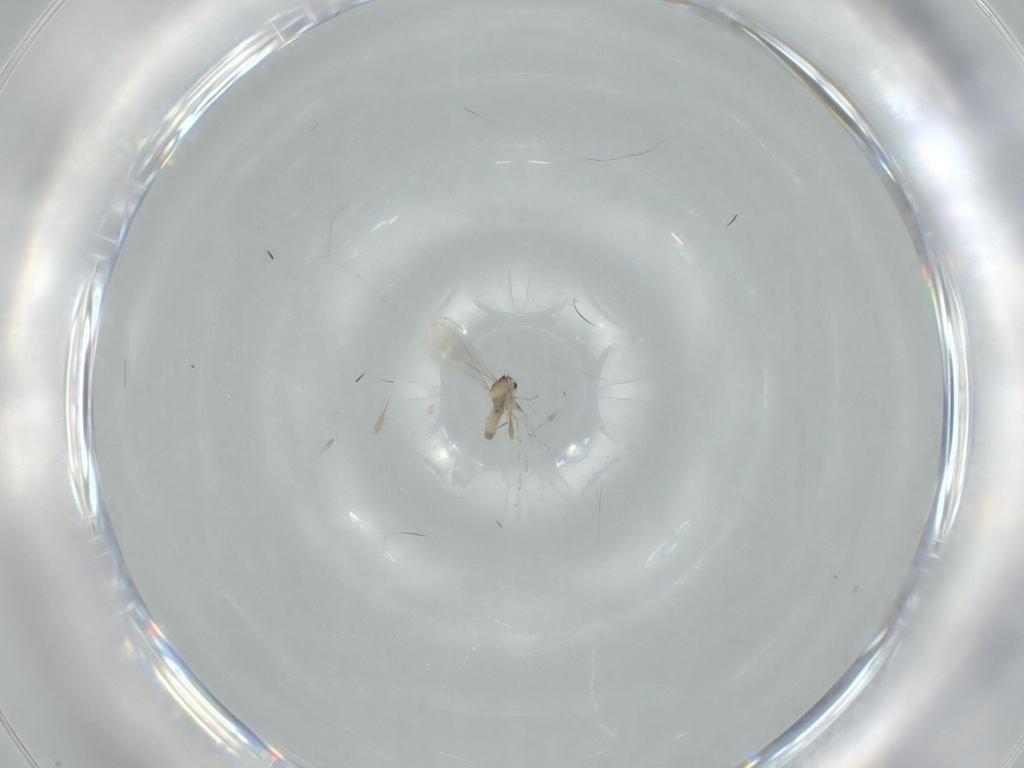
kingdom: Animalia
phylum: Arthropoda
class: Insecta
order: Diptera
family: Cecidomyiidae
